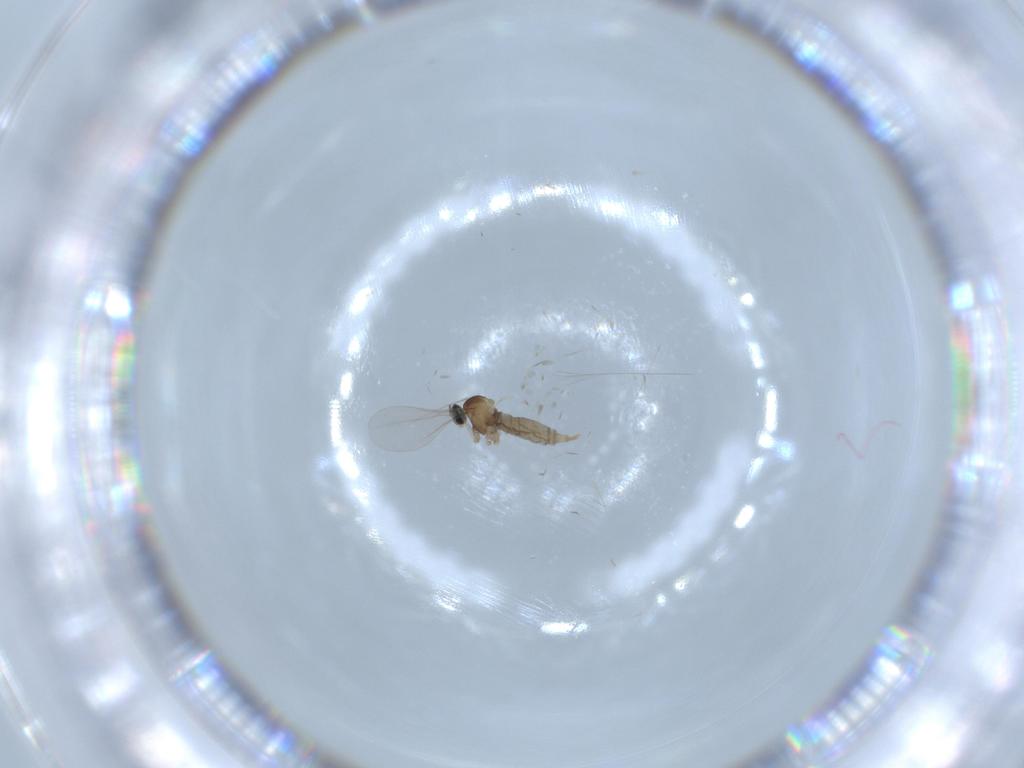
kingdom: Animalia
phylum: Arthropoda
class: Insecta
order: Diptera
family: Chironomidae
